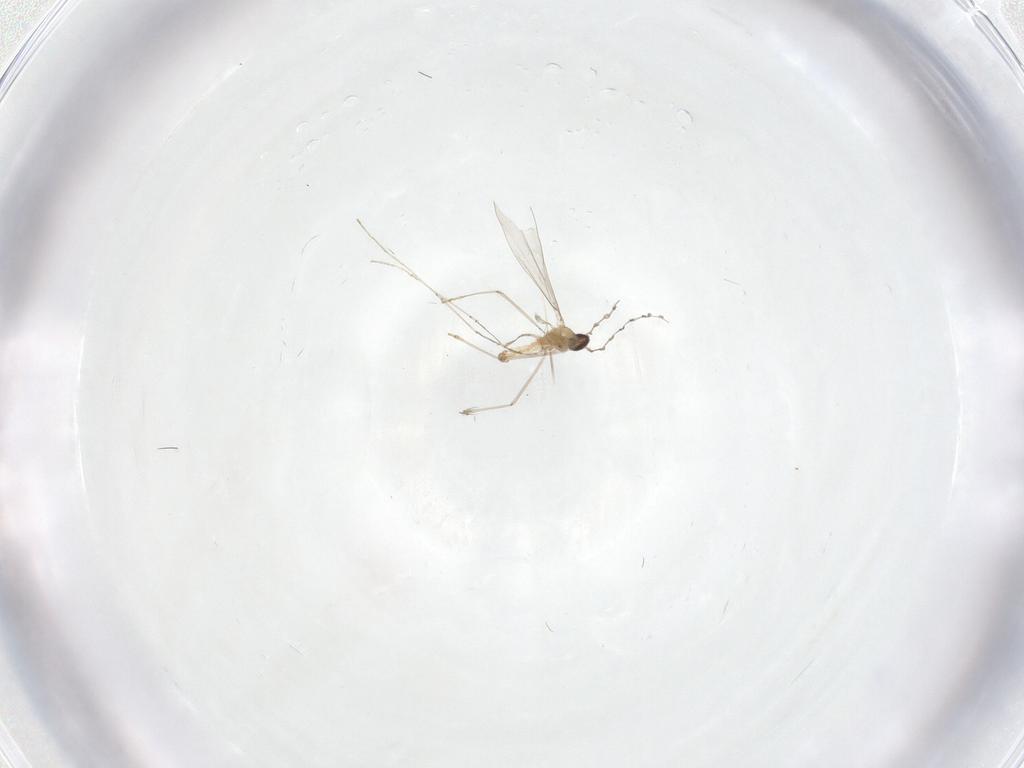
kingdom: Animalia
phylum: Arthropoda
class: Insecta
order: Diptera
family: Cecidomyiidae
